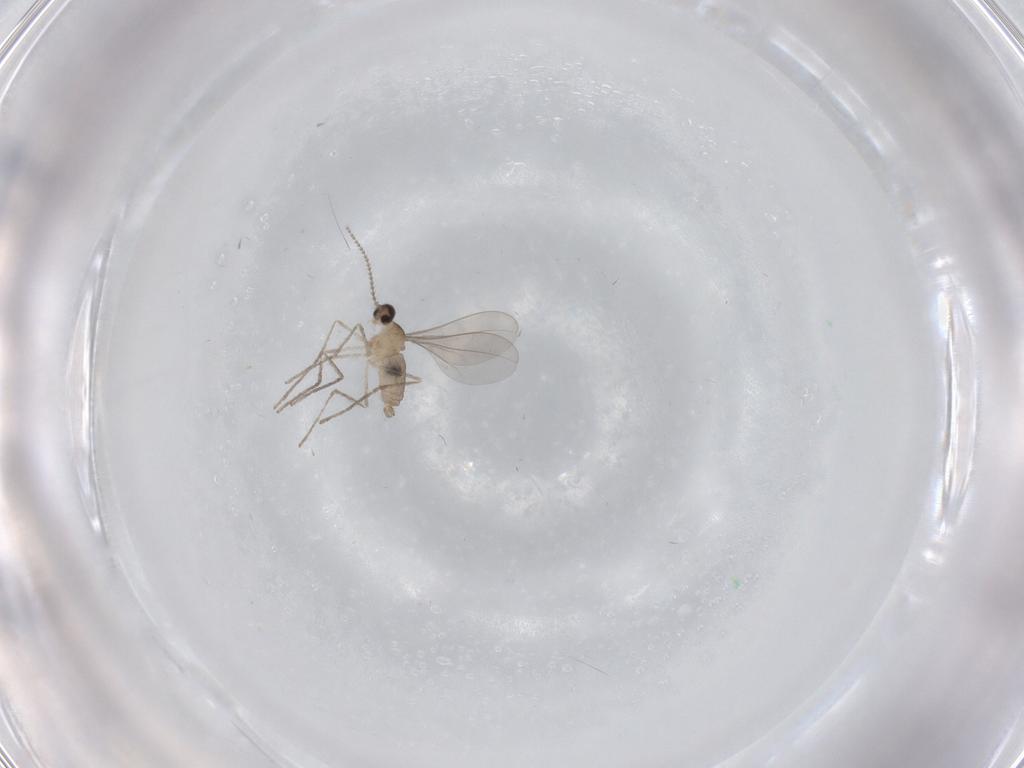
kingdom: Animalia
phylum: Arthropoda
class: Insecta
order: Diptera
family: Cecidomyiidae
